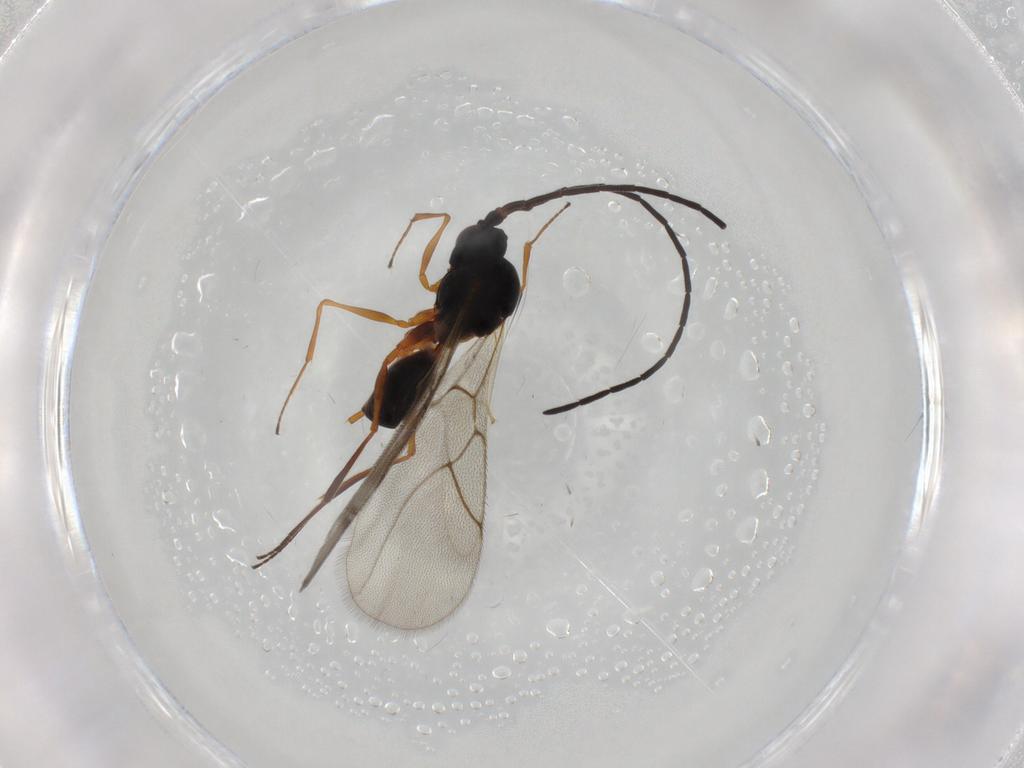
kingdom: Animalia
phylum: Arthropoda
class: Insecta
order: Hymenoptera
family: Figitidae
